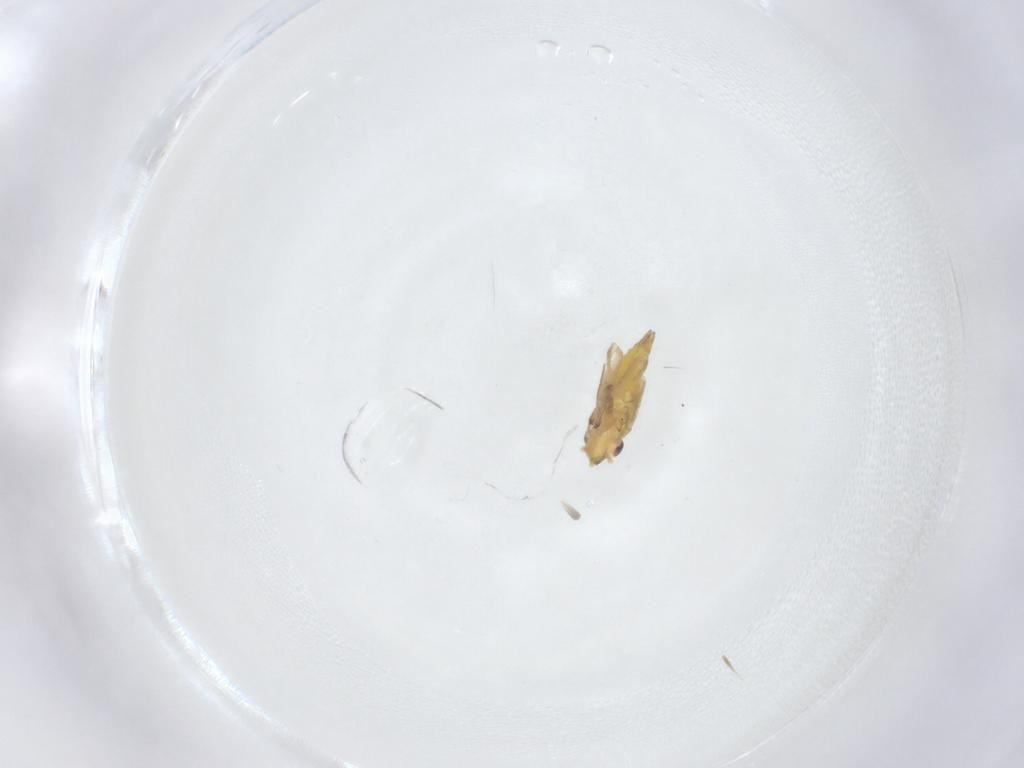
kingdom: Animalia
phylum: Arthropoda
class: Insecta
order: Hemiptera
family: Cicadellidae
